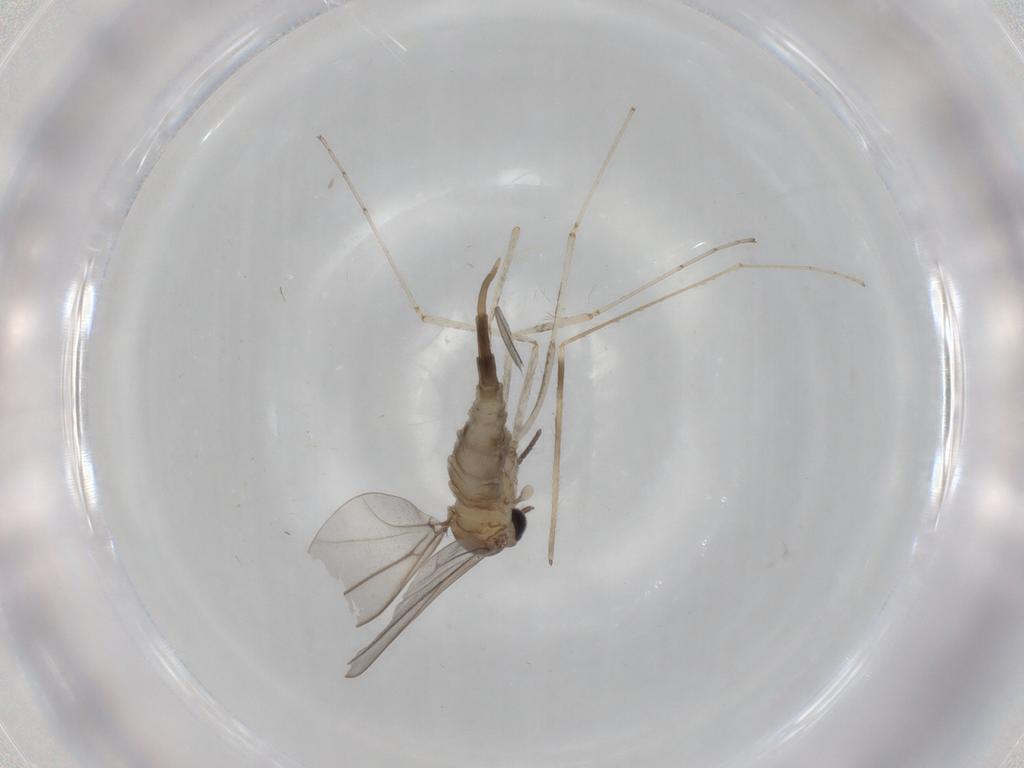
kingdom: Animalia
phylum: Arthropoda
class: Insecta
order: Diptera
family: Cecidomyiidae
